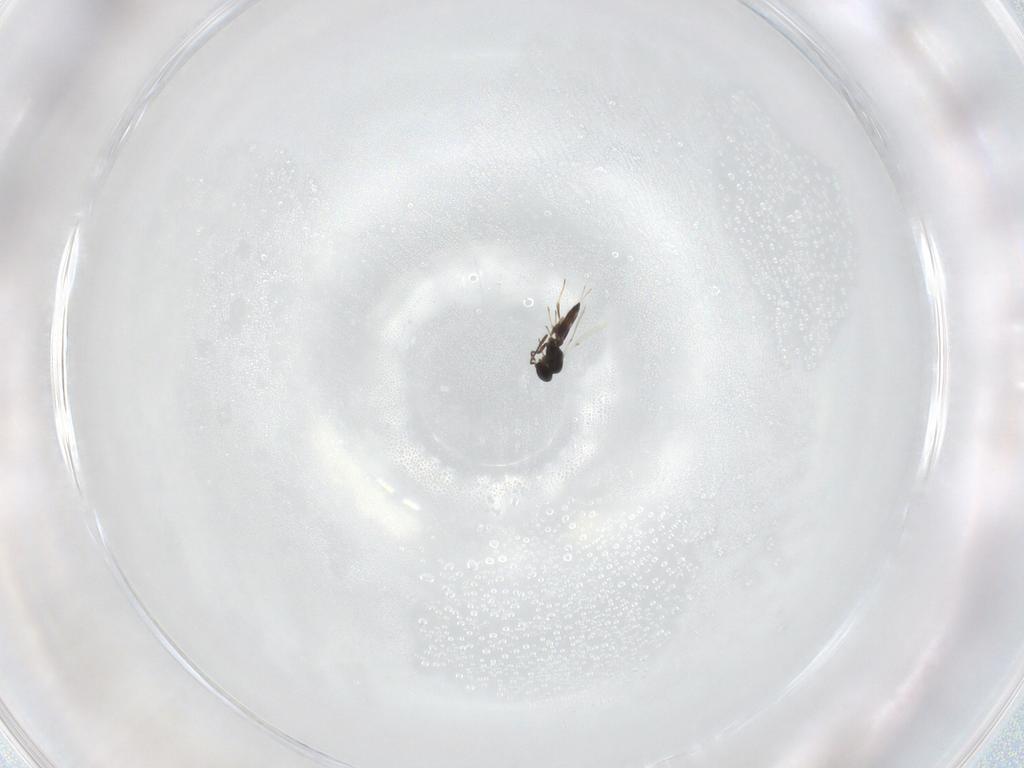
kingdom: Animalia
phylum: Arthropoda
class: Insecta
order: Hymenoptera
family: Scelionidae
